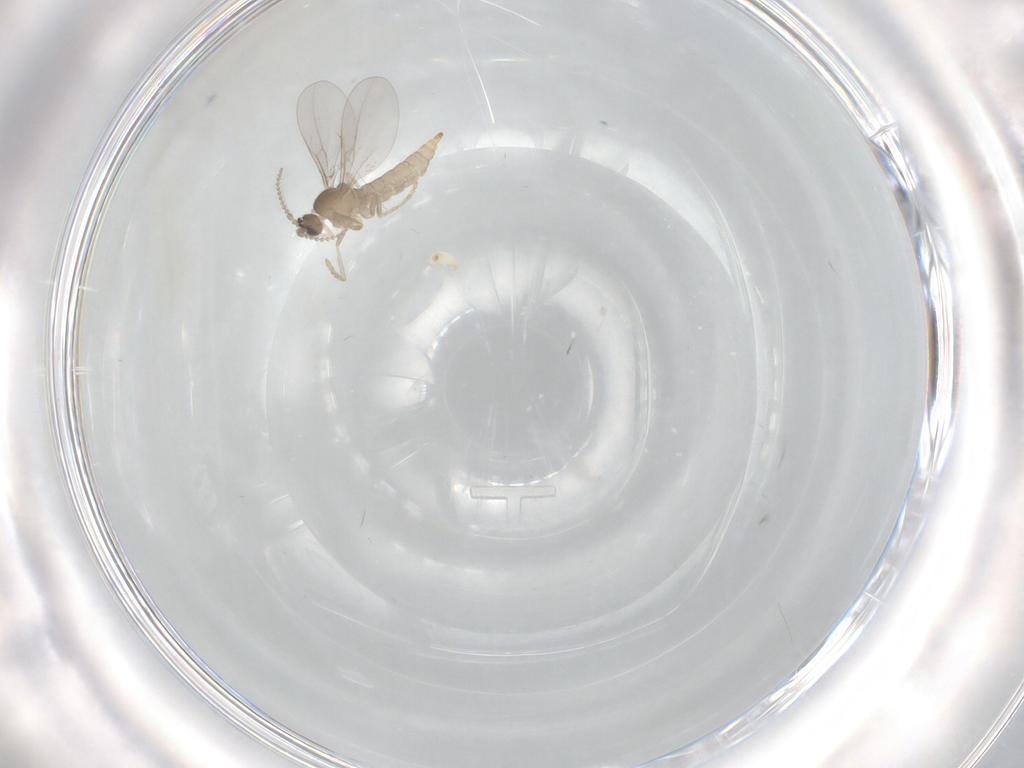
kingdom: Animalia
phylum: Arthropoda
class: Insecta
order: Diptera
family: Cecidomyiidae
